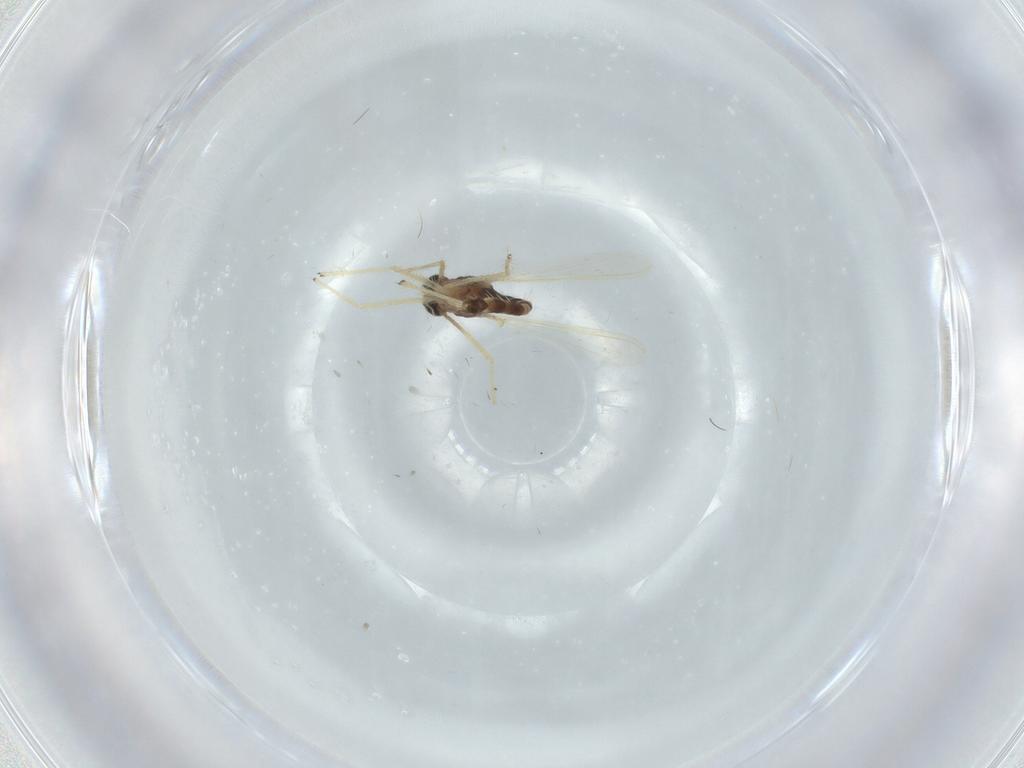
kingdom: Animalia
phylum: Arthropoda
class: Insecta
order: Diptera
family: Chironomidae
